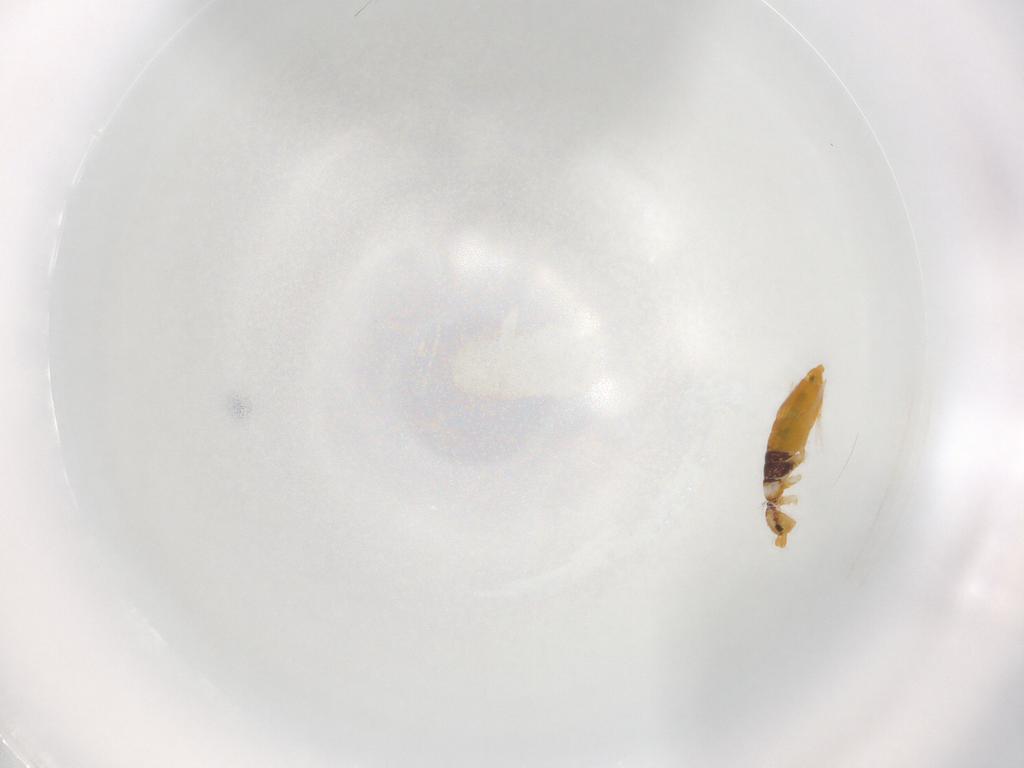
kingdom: Animalia
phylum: Arthropoda
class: Collembola
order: Entomobryomorpha
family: Entomobryidae
